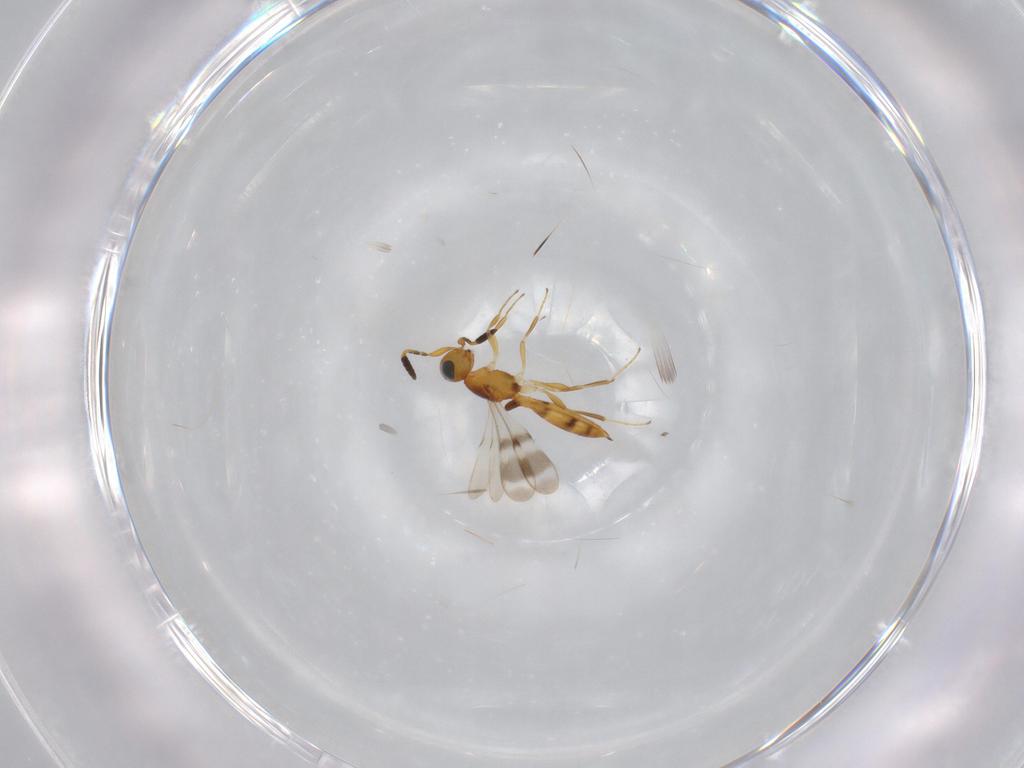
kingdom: Animalia
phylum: Arthropoda
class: Insecta
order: Hymenoptera
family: Scelionidae
